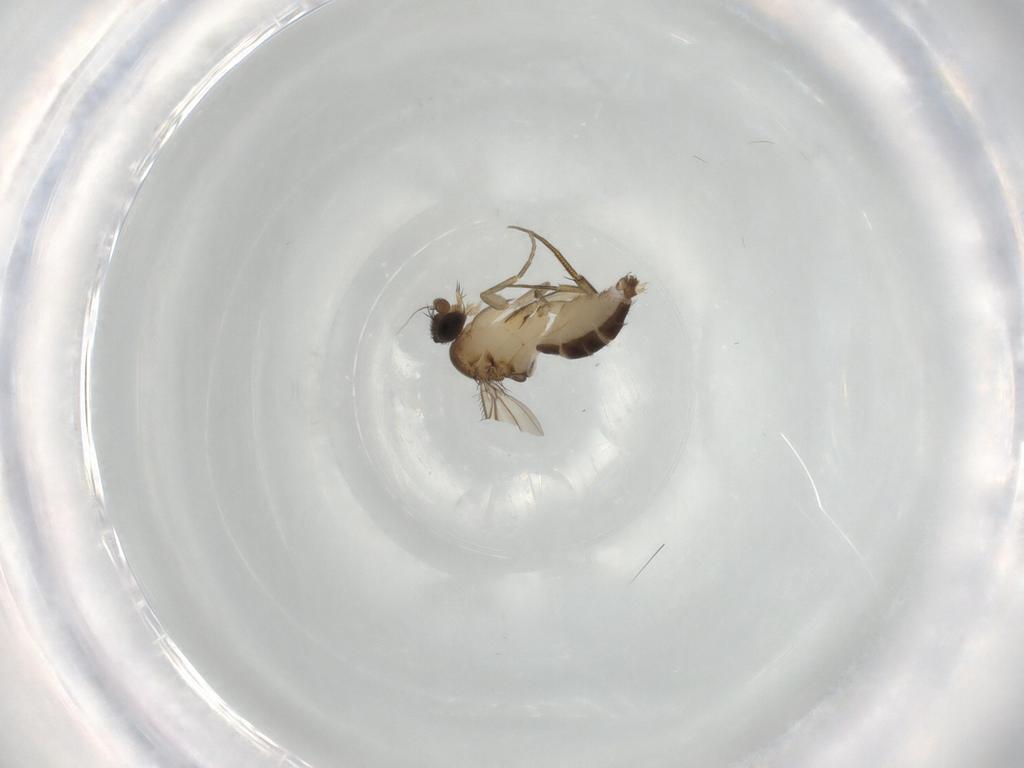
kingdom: Animalia
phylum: Arthropoda
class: Insecta
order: Diptera
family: Phoridae
